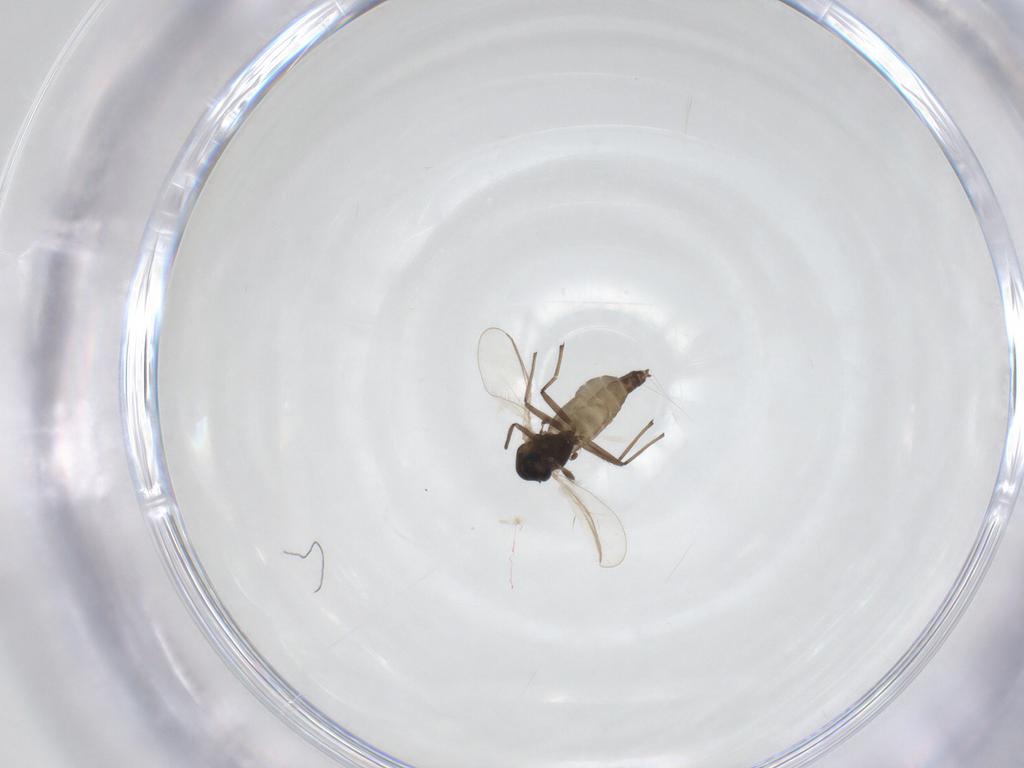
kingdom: Animalia
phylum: Arthropoda
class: Insecta
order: Diptera
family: Chironomidae
